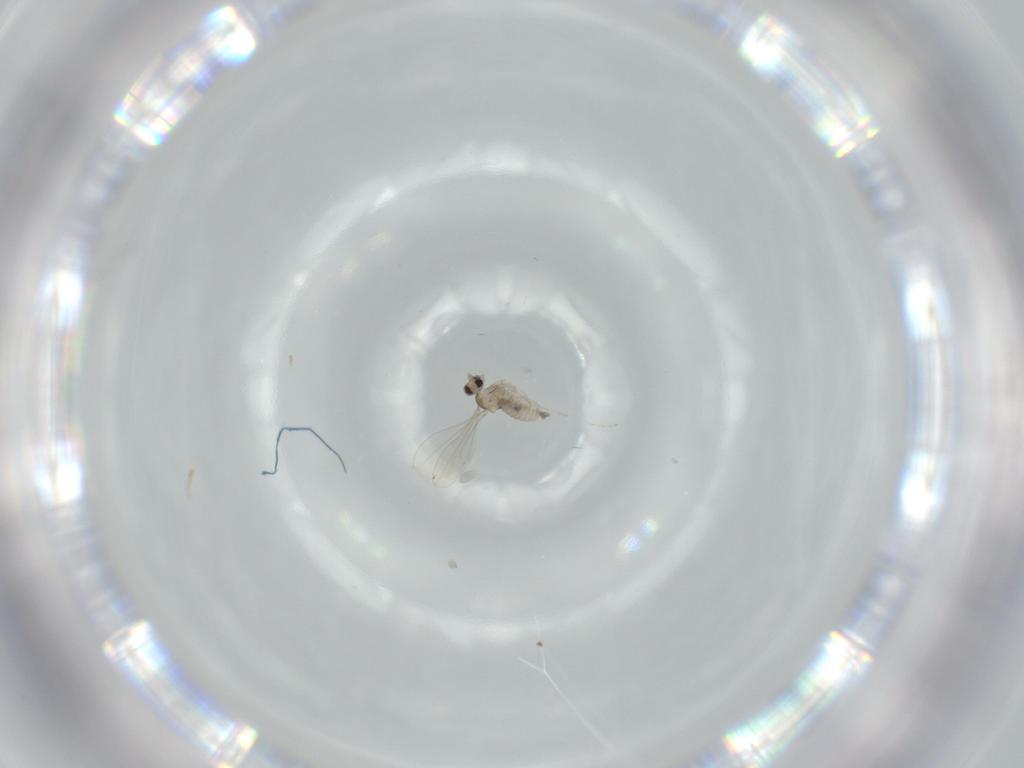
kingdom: Animalia
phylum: Arthropoda
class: Insecta
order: Diptera
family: Cecidomyiidae
